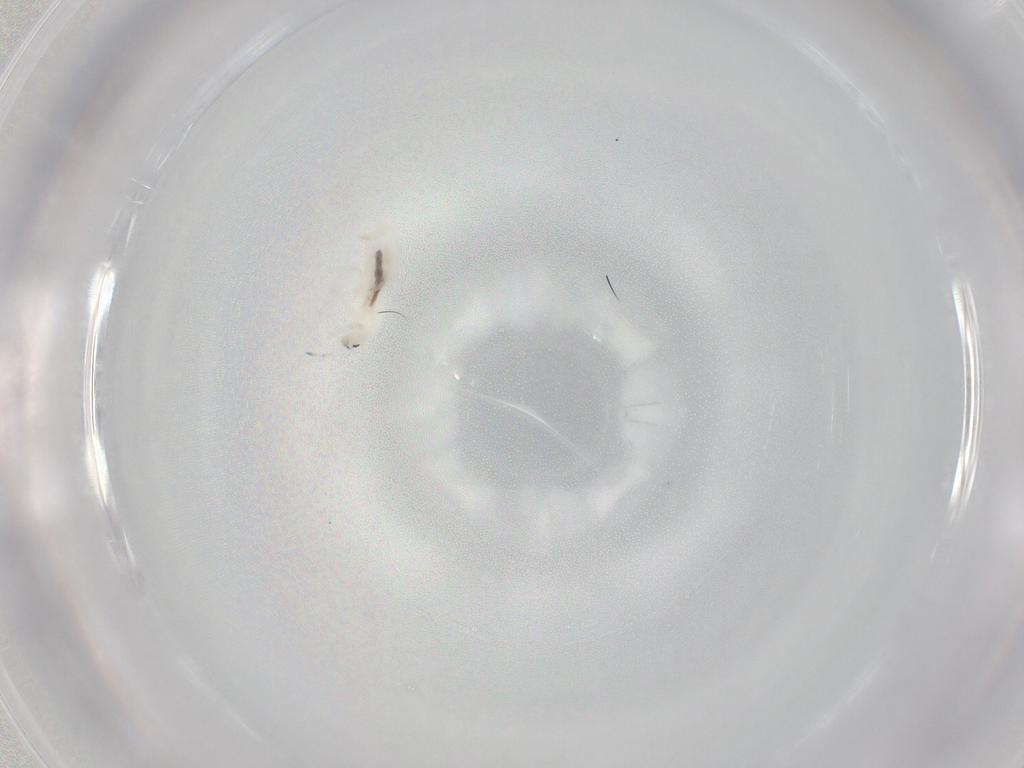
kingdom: Animalia
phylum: Arthropoda
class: Collembola
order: Entomobryomorpha
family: Entomobryidae
